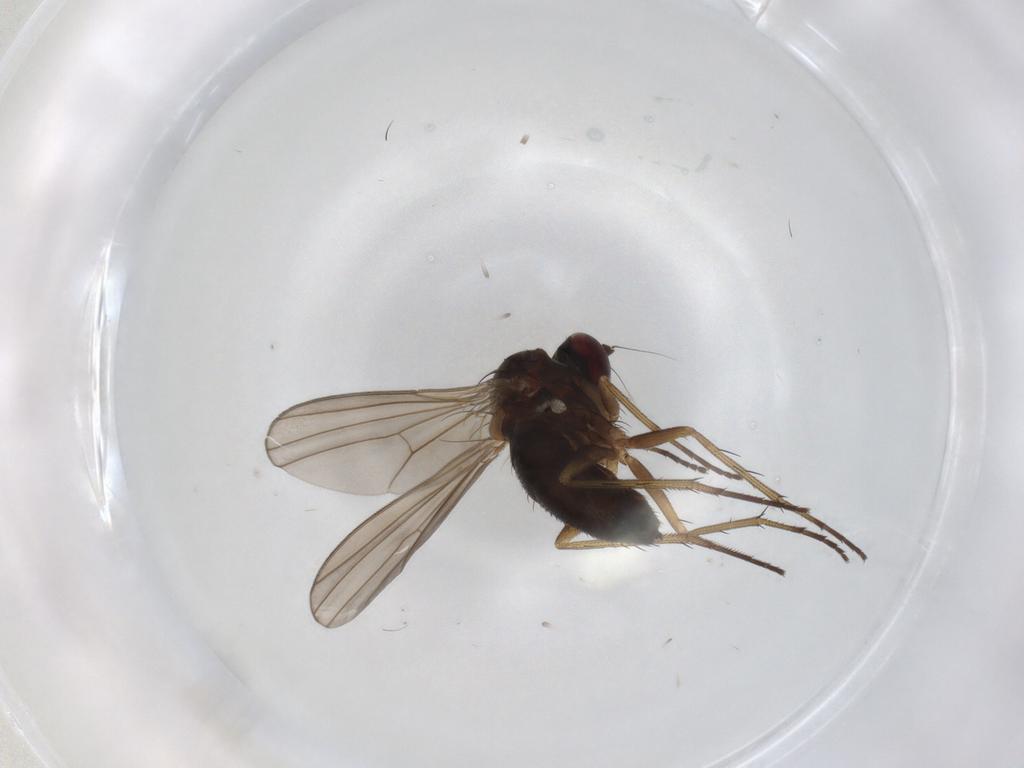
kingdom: Animalia
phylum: Arthropoda
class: Insecta
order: Diptera
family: Dolichopodidae
